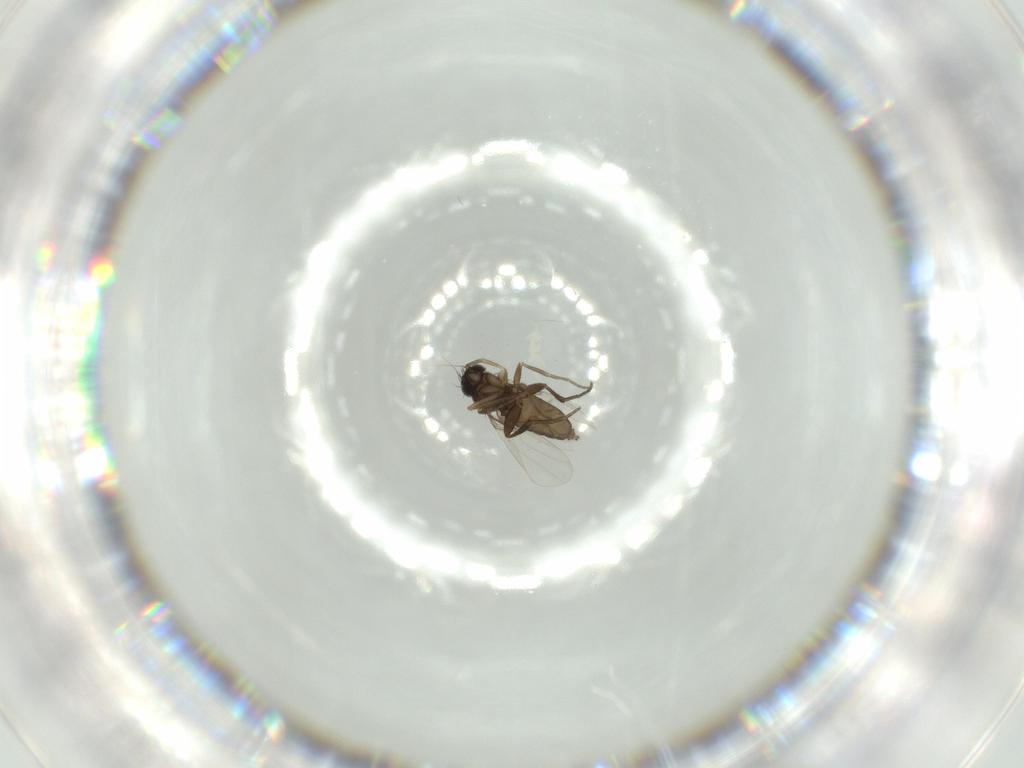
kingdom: Animalia
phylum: Arthropoda
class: Insecta
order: Diptera
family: Phoridae
